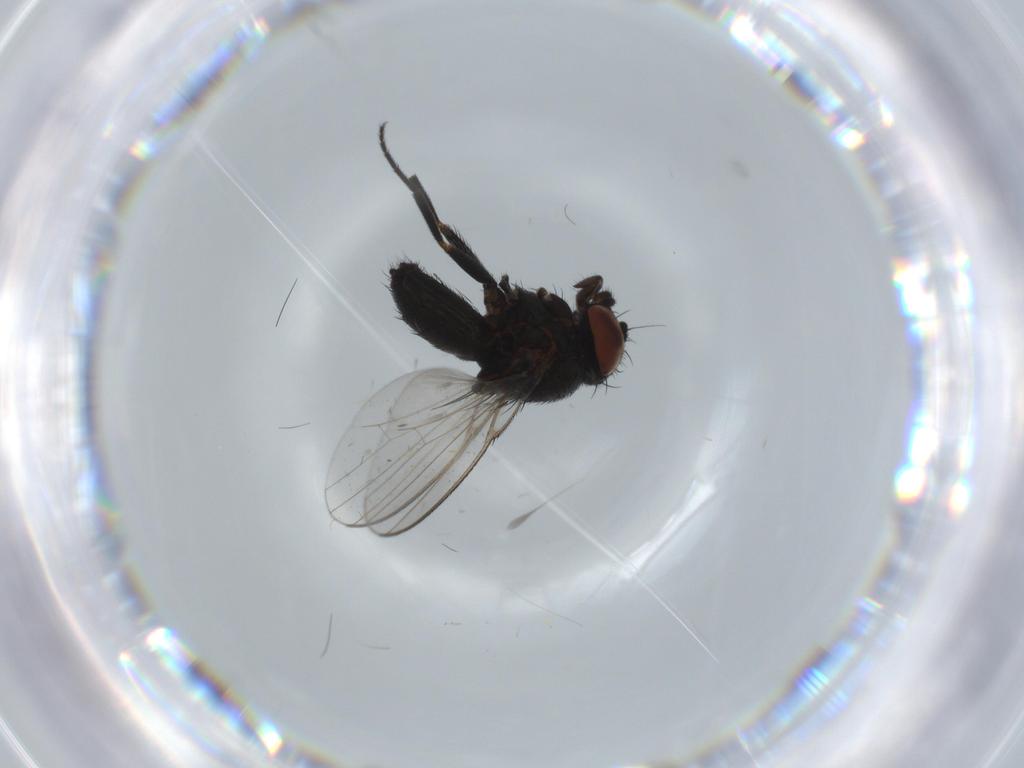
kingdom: Animalia
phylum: Arthropoda
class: Insecta
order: Diptera
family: Milichiidae
